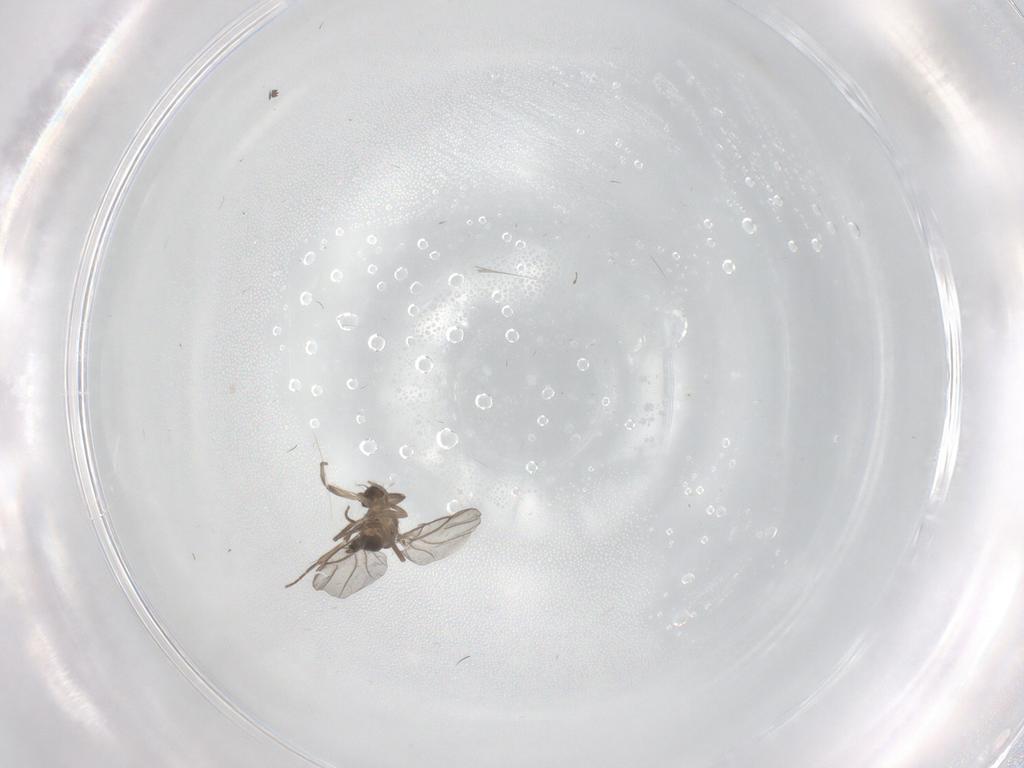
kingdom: Animalia
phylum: Arthropoda
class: Insecta
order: Diptera
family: Phoridae
